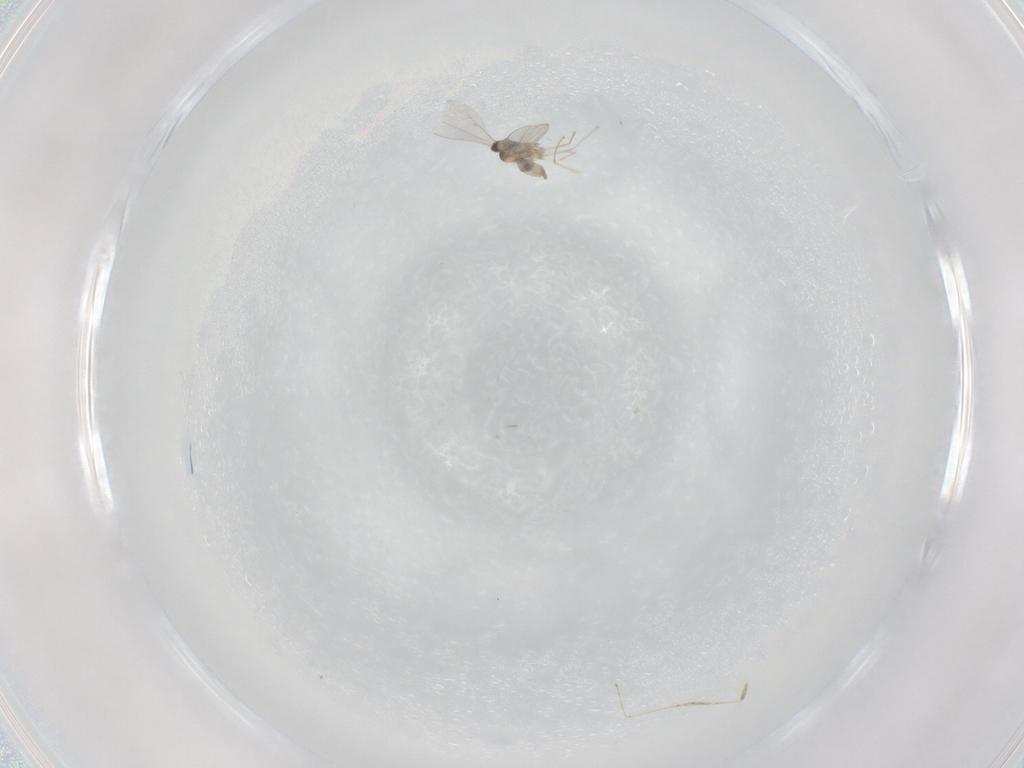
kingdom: Animalia
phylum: Arthropoda
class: Insecta
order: Diptera
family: Cecidomyiidae
